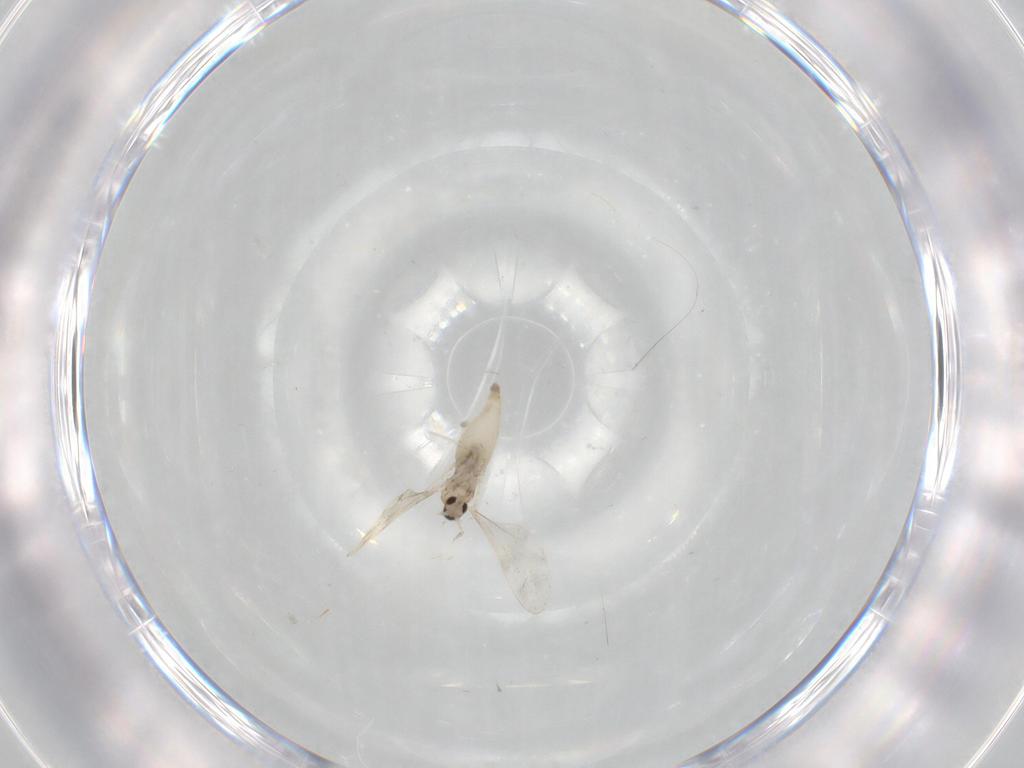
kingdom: Animalia
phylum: Arthropoda
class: Insecta
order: Diptera
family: Cecidomyiidae
